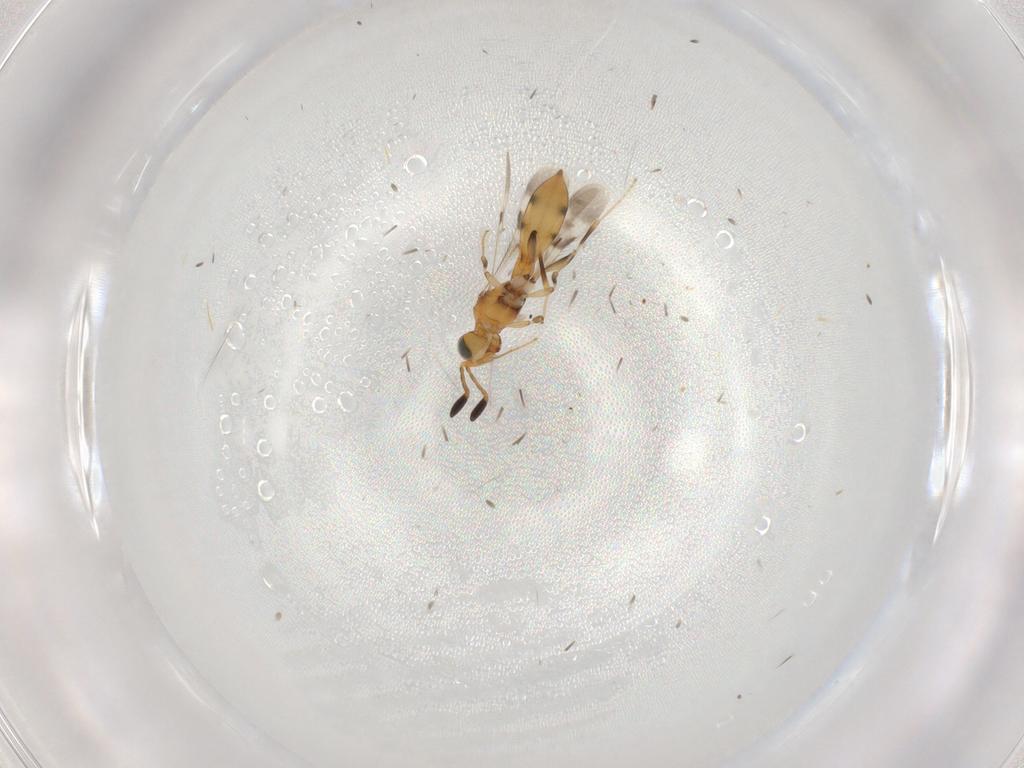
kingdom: Animalia
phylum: Arthropoda
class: Insecta
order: Hymenoptera
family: Scelionidae
